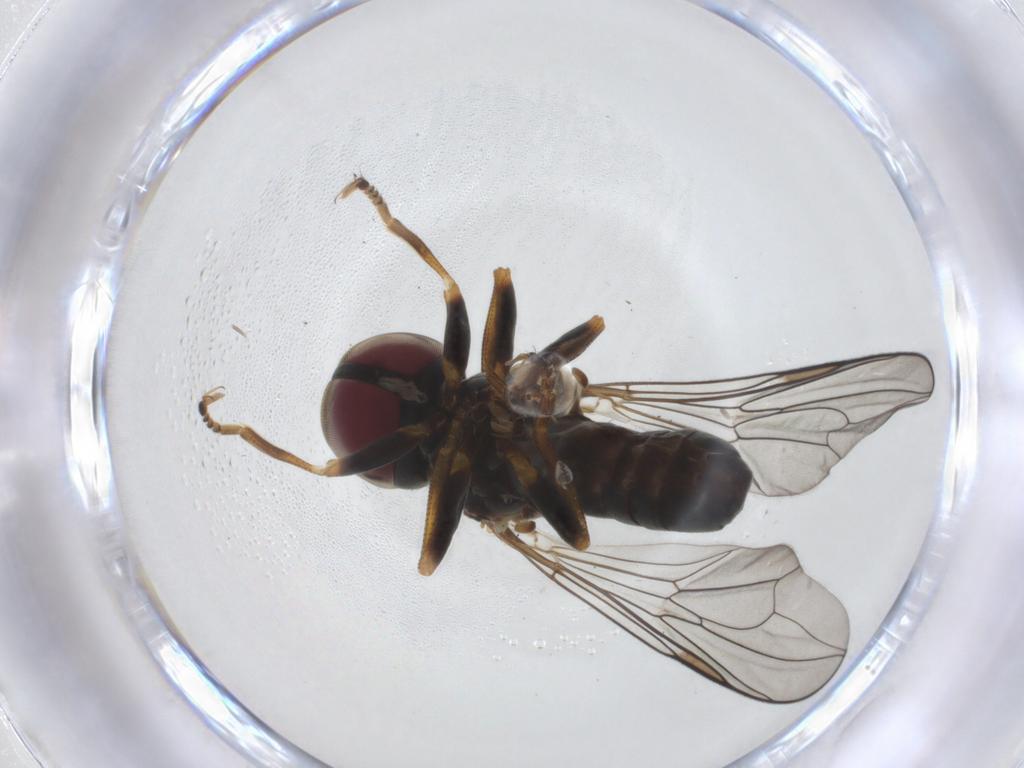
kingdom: Animalia
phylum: Arthropoda
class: Insecta
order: Diptera
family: Pipunculidae
